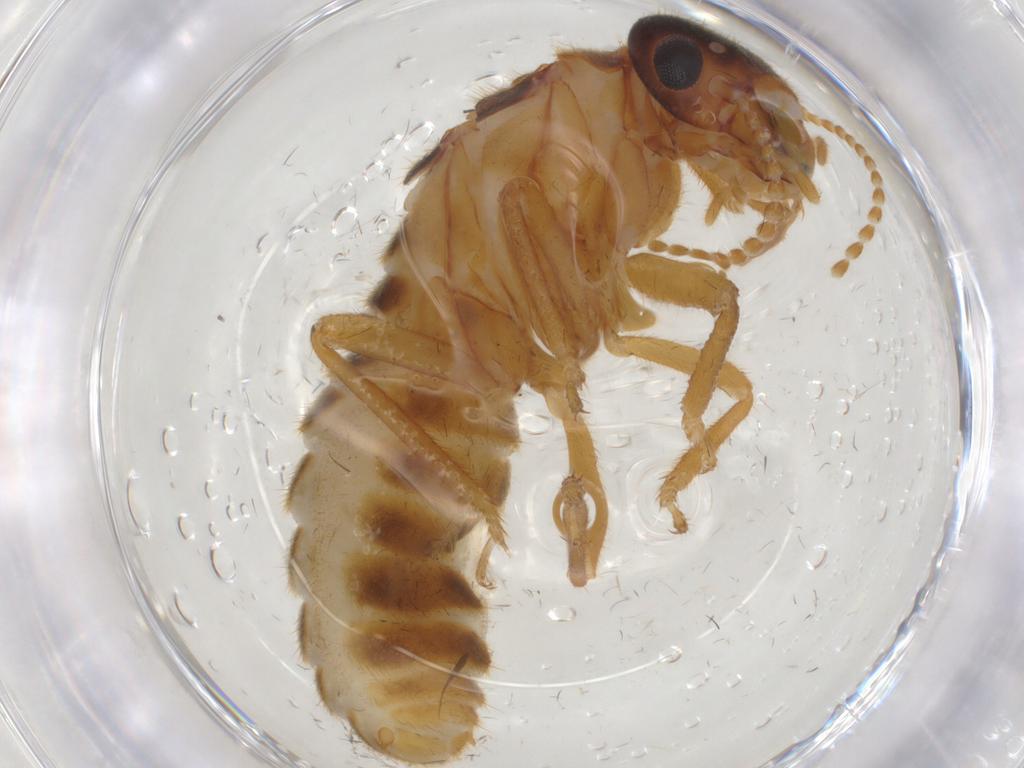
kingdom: Animalia
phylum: Arthropoda
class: Insecta
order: Blattodea
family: Termitidae
